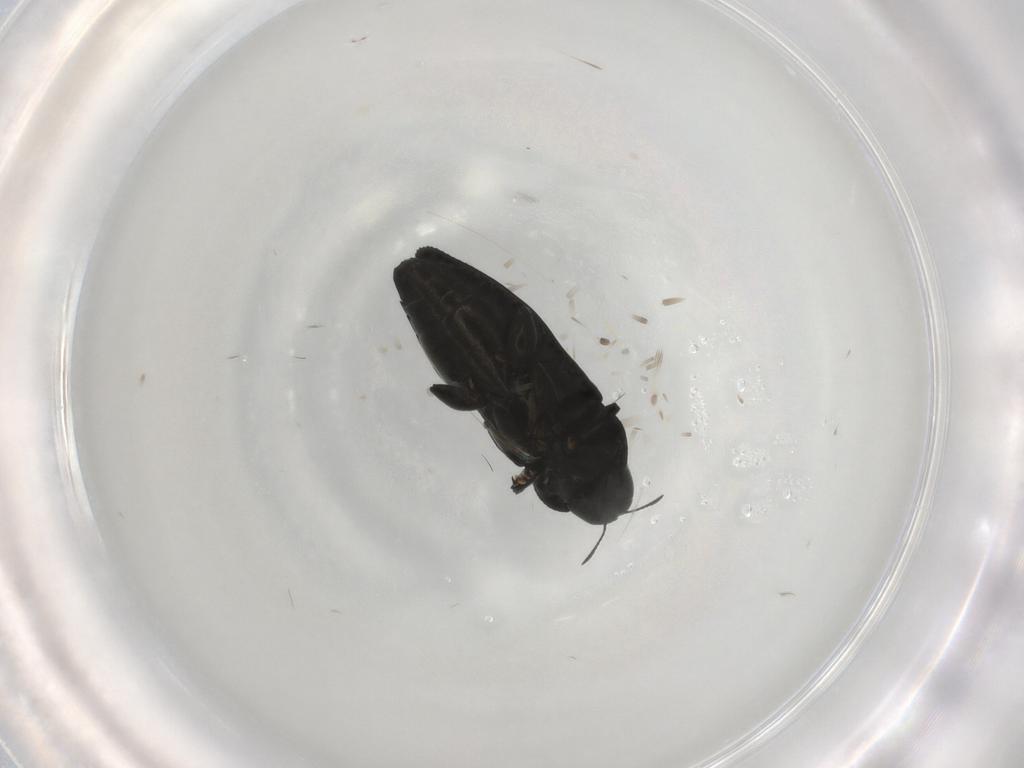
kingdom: Animalia
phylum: Arthropoda
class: Insecta
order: Coleoptera
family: Buprestidae
